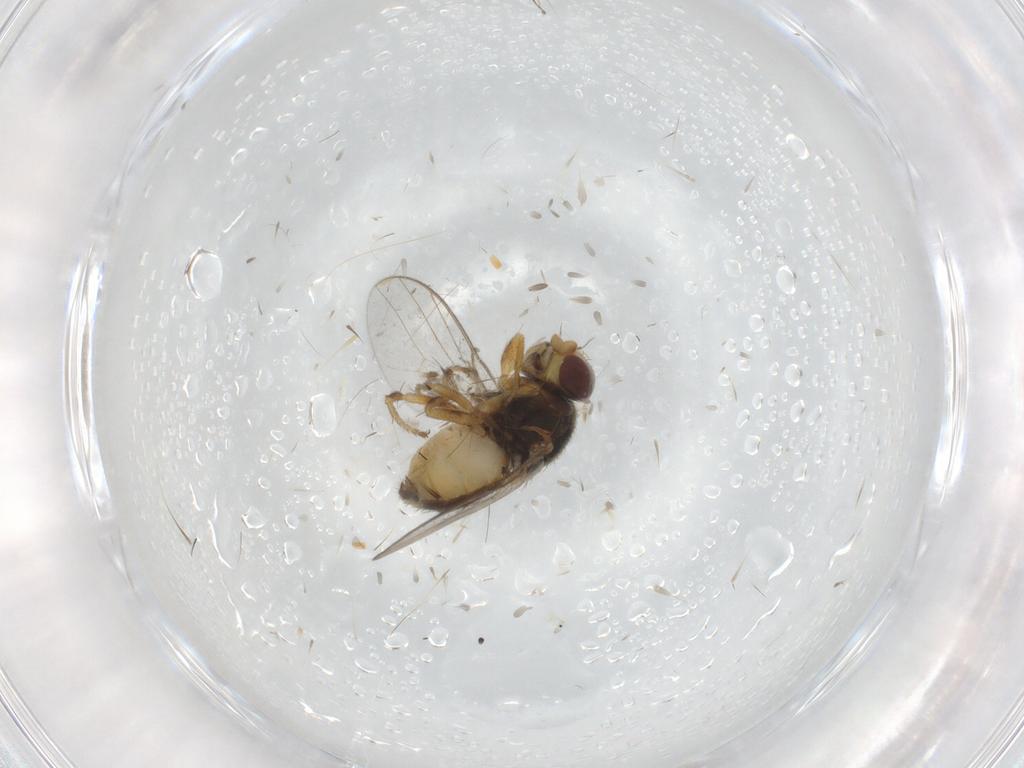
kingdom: Animalia
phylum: Arthropoda
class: Insecta
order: Diptera
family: Chloropidae
